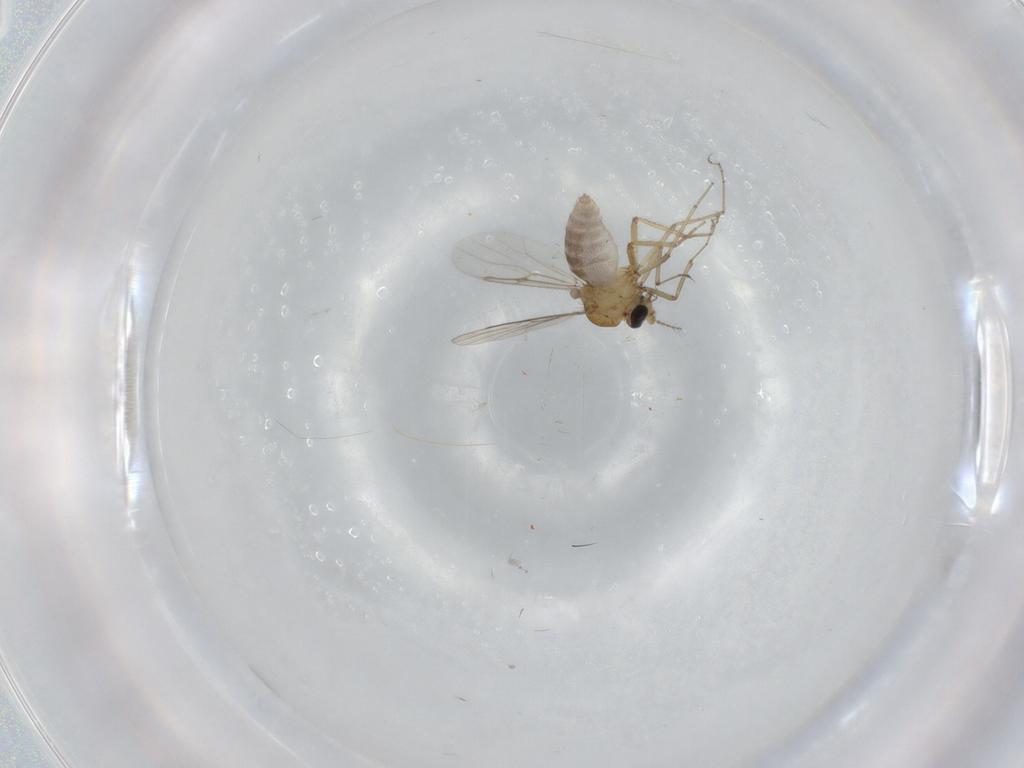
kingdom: Animalia
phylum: Arthropoda
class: Insecta
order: Diptera
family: Ceratopogonidae
